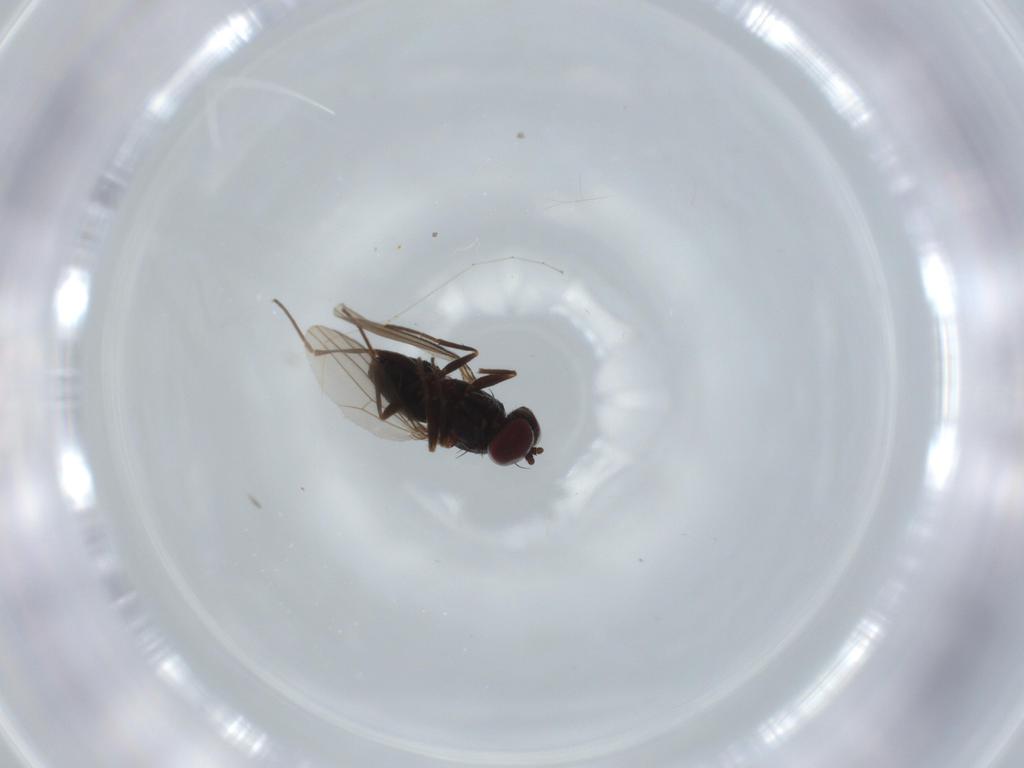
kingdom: Animalia
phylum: Arthropoda
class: Insecta
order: Diptera
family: Dolichopodidae
